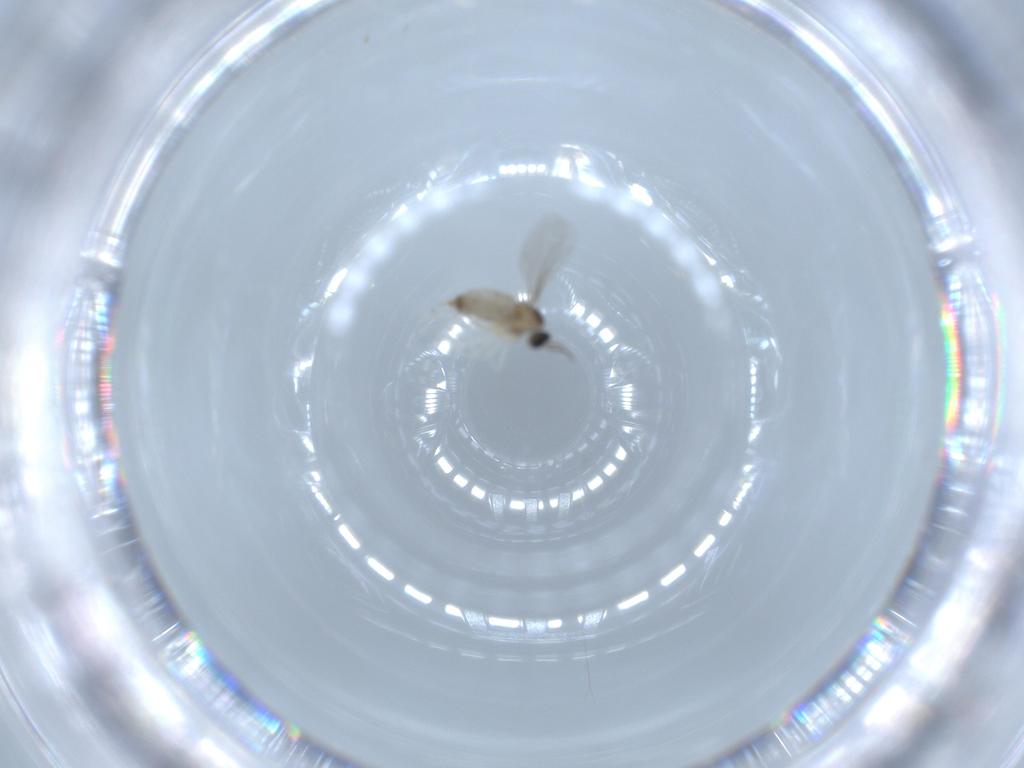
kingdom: Animalia
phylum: Arthropoda
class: Insecta
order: Diptera
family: Cecidomyiidae
